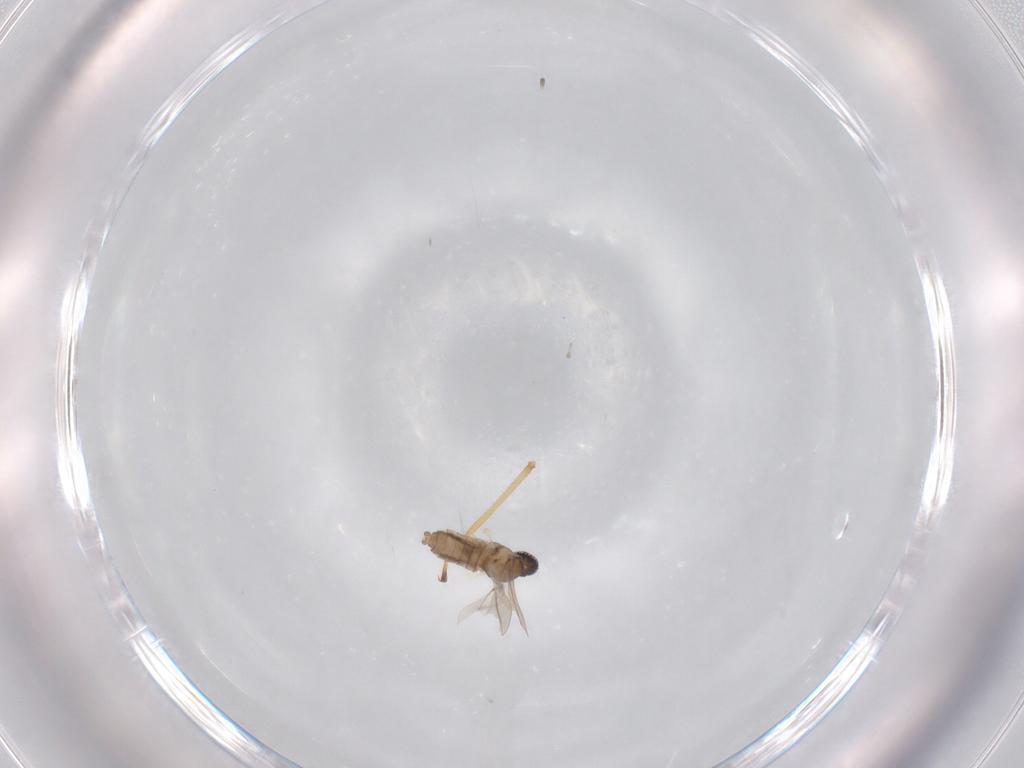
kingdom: Animalia
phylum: Arthropoda
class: Insecta
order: Diptera
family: Cecidomyiidae
